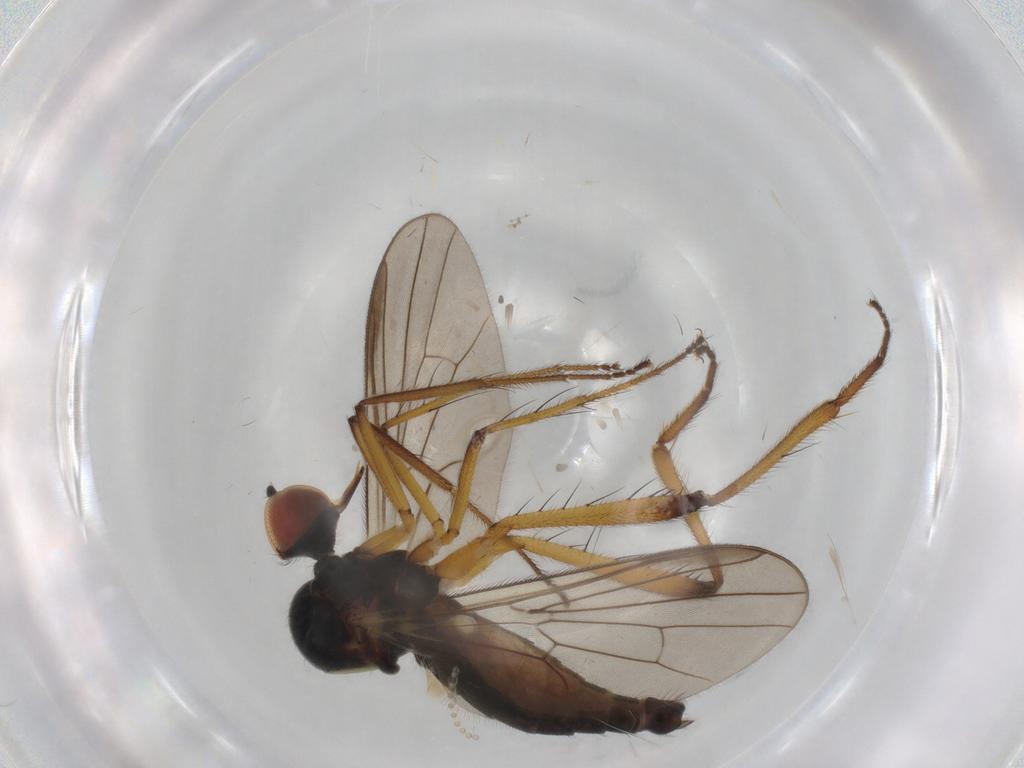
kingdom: Animalia
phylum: Arthropoda
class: Insecta
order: Diptera
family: Hybotidae
